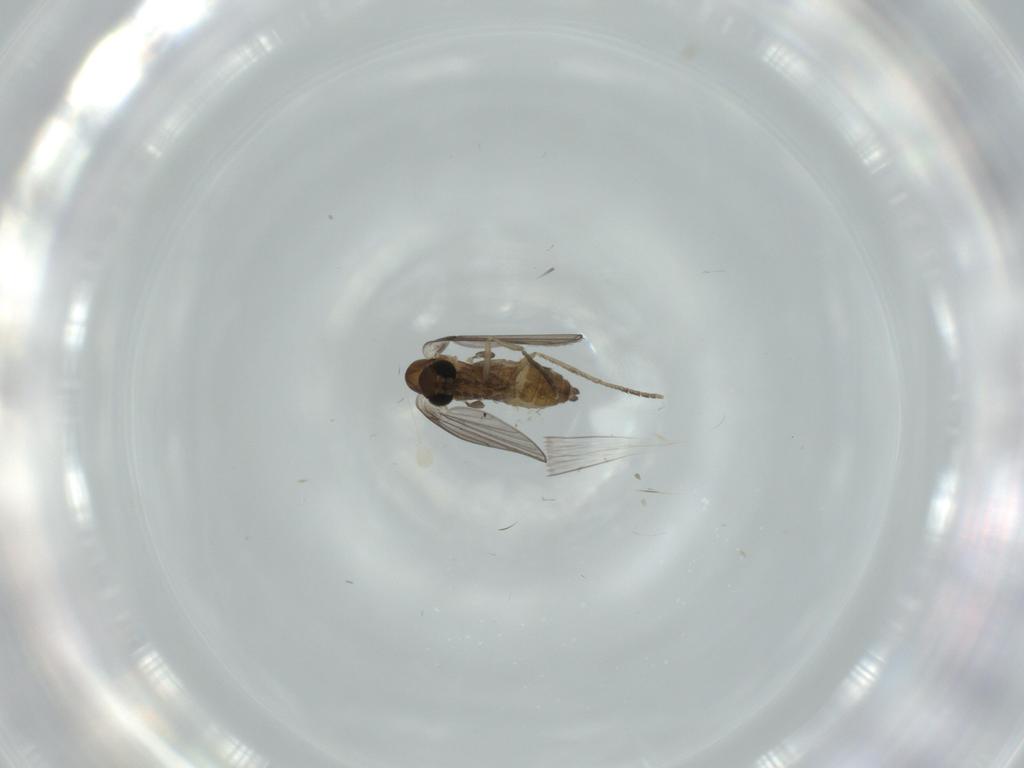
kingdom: Animalia
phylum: Arthropoda
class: Insecta
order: Diptera
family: Milichiidae
